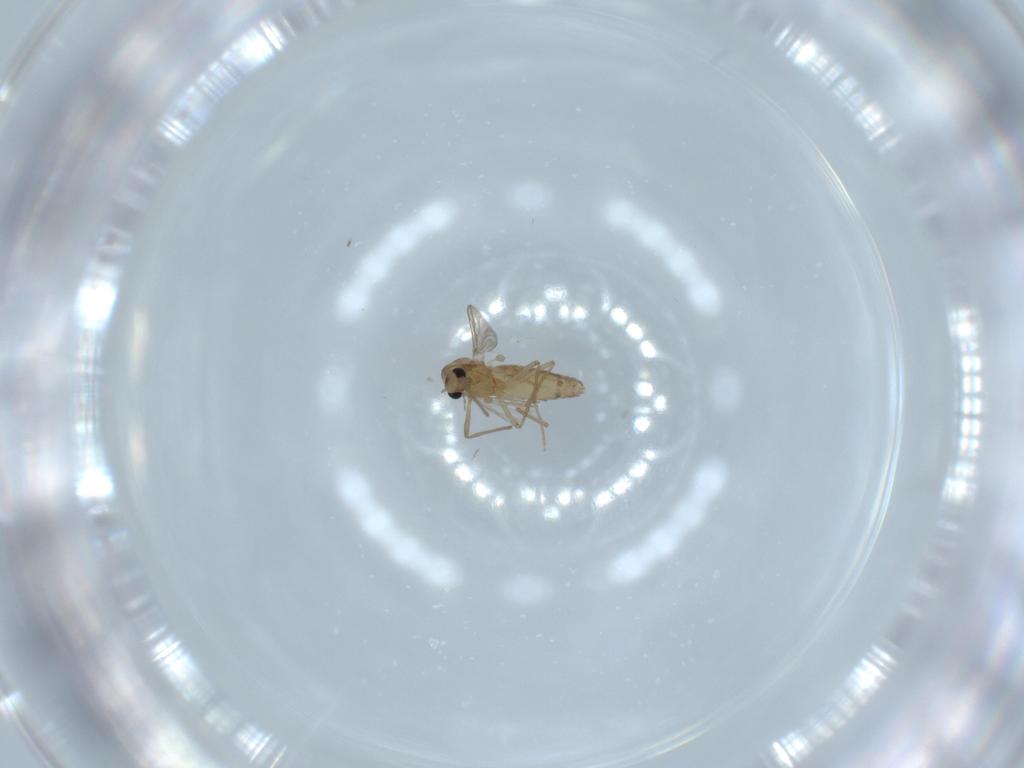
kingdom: Animalia
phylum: Arthropoda
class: Insecta
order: Diptera
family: Chironomidae
